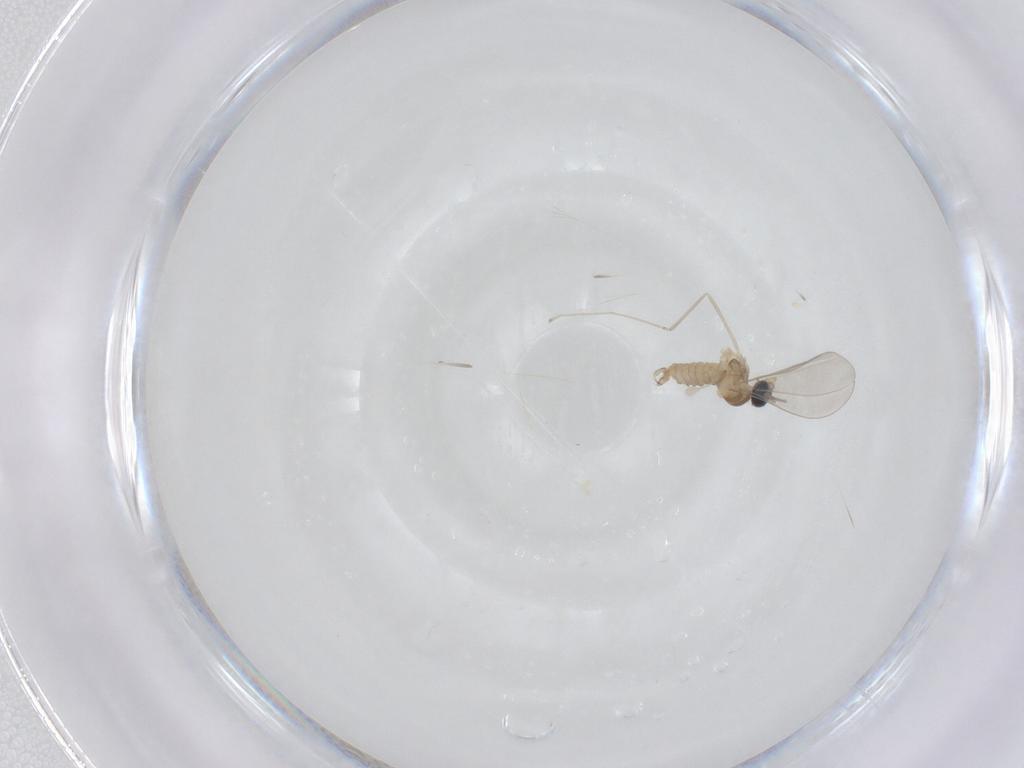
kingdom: Animalia
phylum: Arthropoda
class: Insecta
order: Diptera
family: Cecidomyiidae
